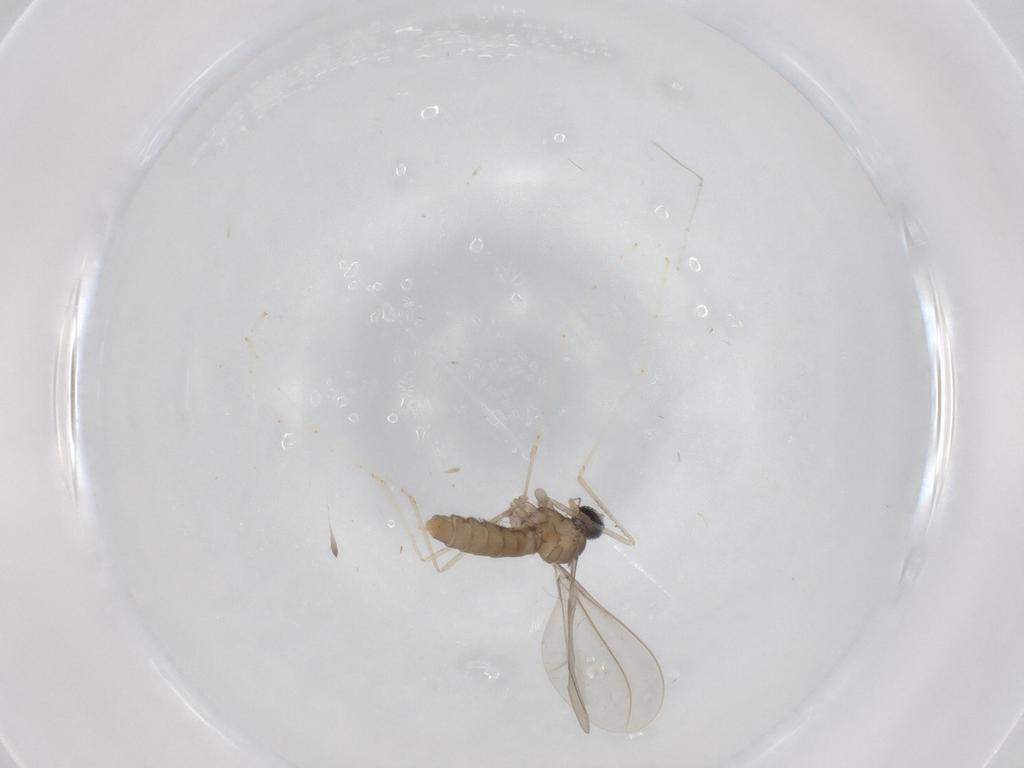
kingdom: Animalia
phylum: Arthropoda
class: Insecta
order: Diptera
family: Cecidomyiidae
